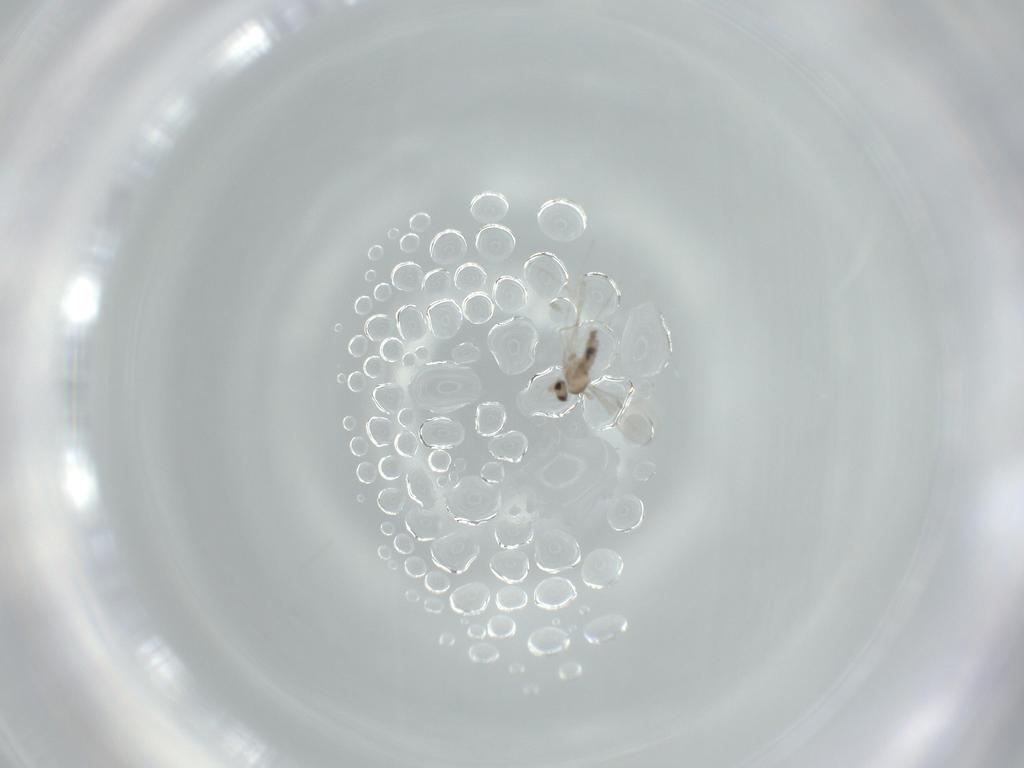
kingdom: Animalia
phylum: Arthropoda
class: Insecta
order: Diptera
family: Cecidomyiidae
